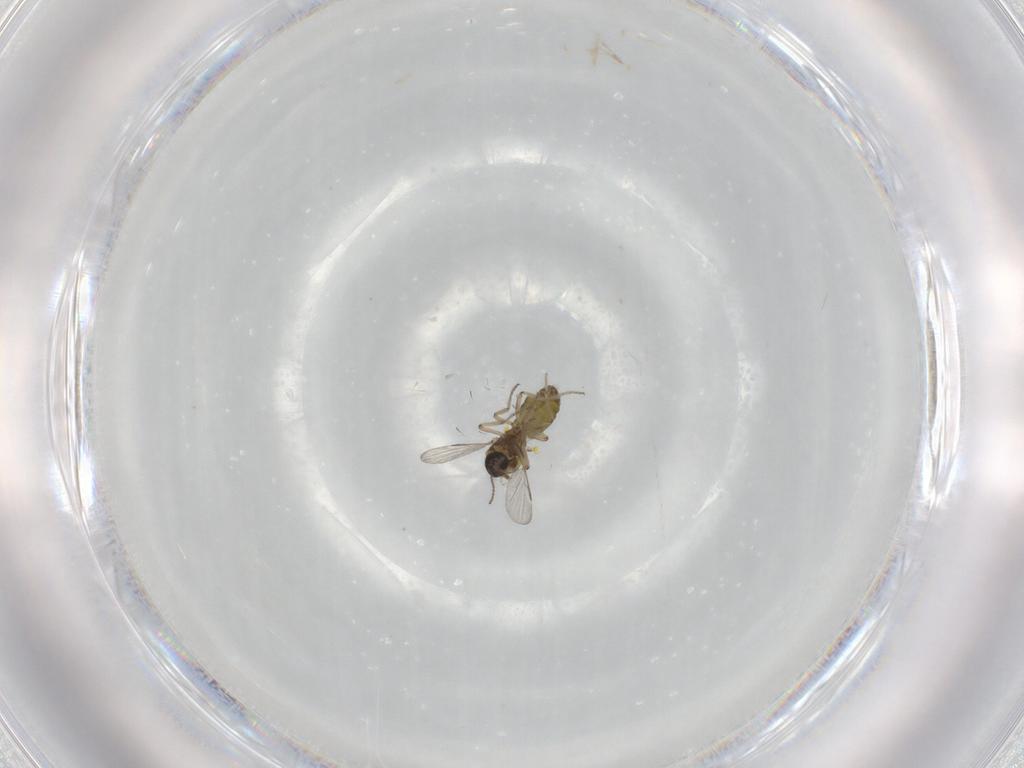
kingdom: Animalia
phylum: Arthropoda
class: Insecta
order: Diptera
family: Ceratopogonidae
